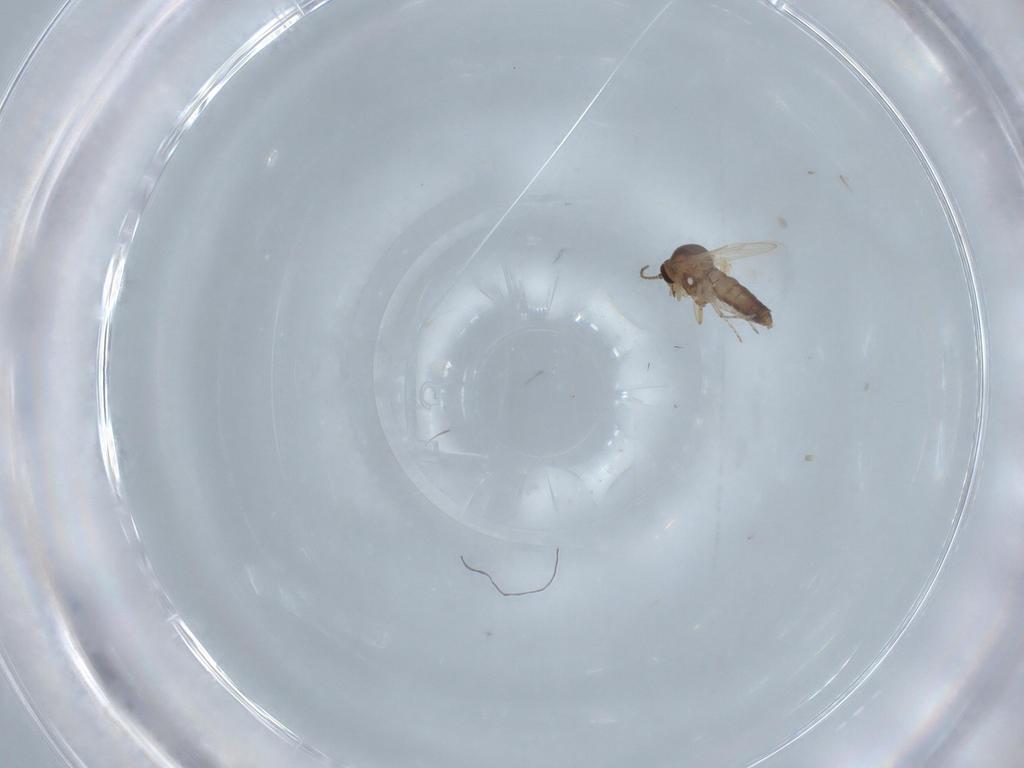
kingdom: Animalia
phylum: Arthropoda
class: Insecta
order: Diptera
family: Ceratopogonidae
